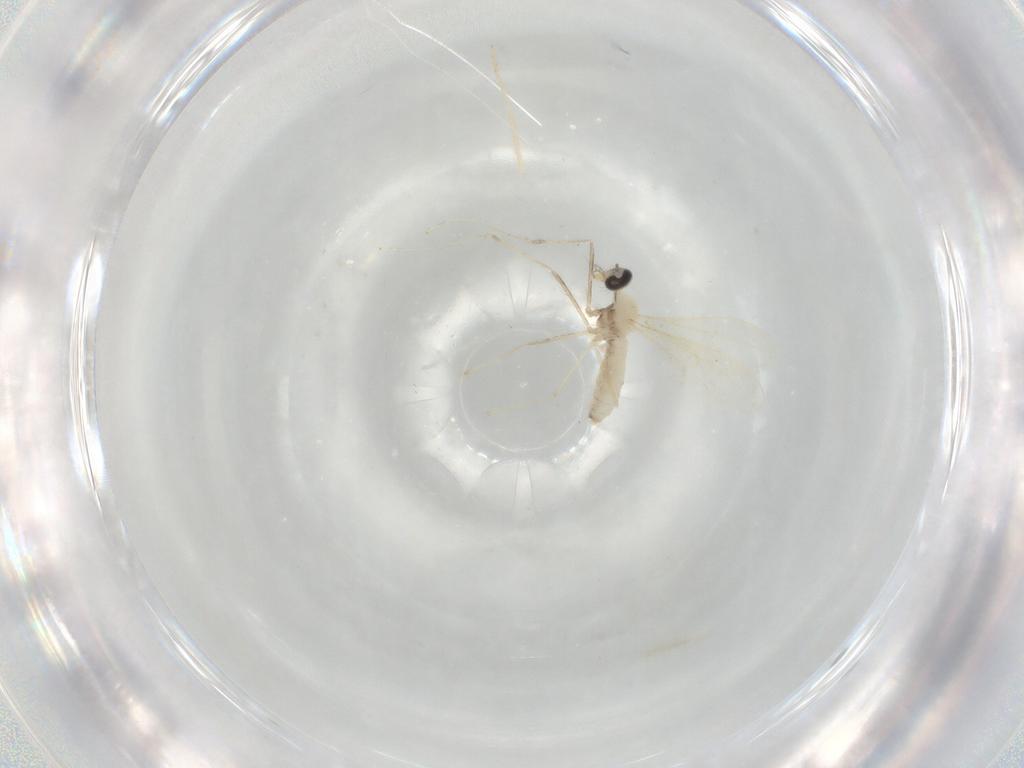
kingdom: Animalia
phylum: Arthropoda
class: Insecta
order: Diptera
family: Cecidomyiidae
